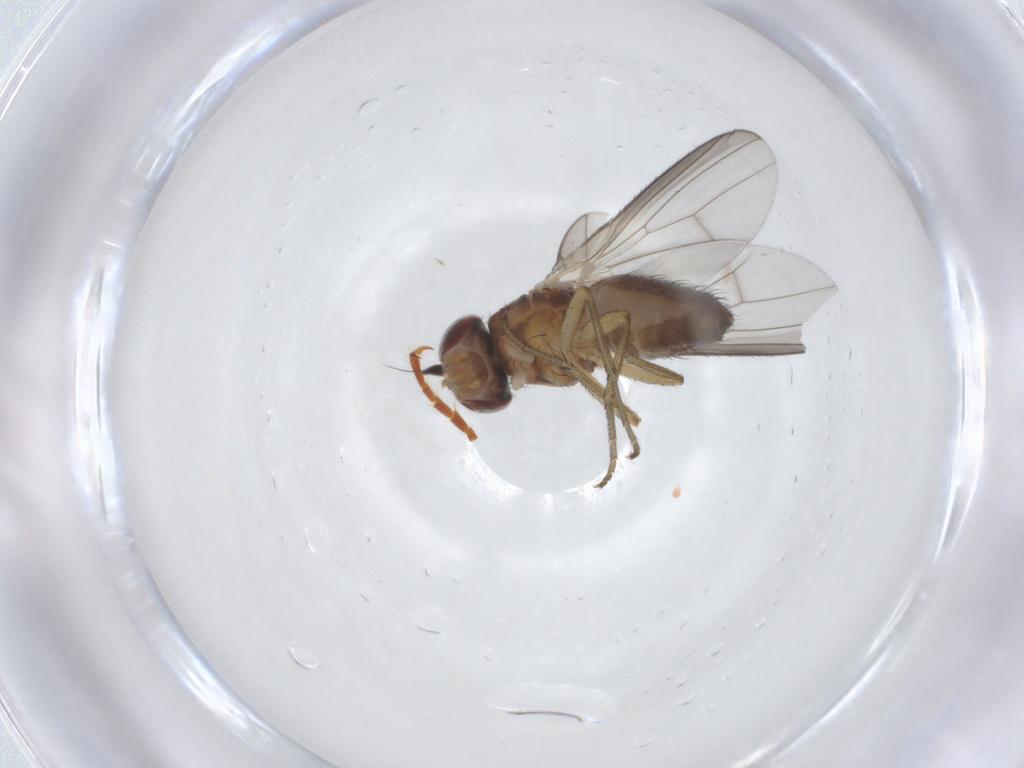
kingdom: Animalia
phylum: Arthropoda
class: Insecta
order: Diptera
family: Heleomyzidae
